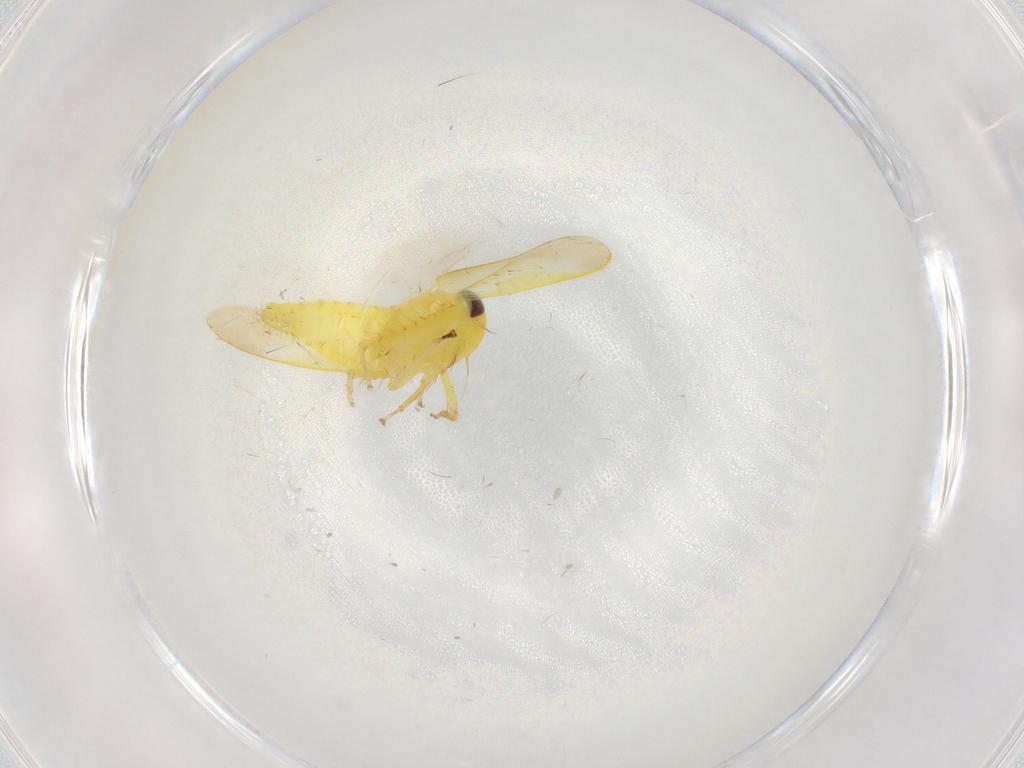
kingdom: Animalia
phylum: Arthropoda
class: Insecta
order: Hemiptera
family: Cicadellidae
